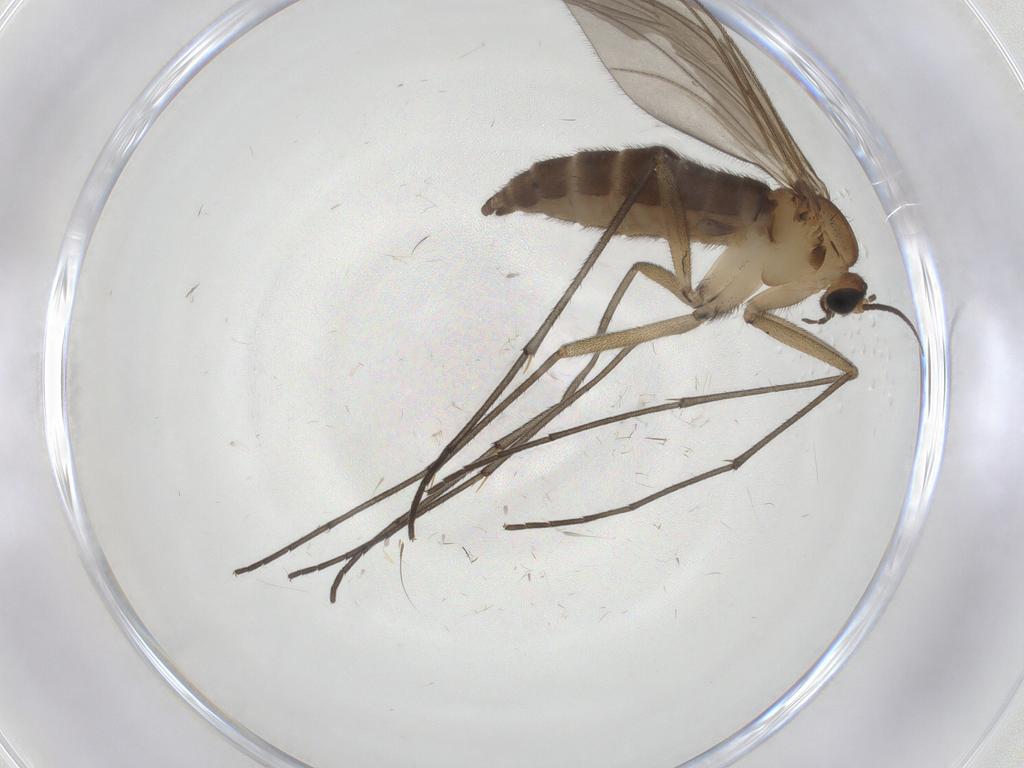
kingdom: Animalia
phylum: Arthropoda
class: Insecta
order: Diptera
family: Sciaridae
